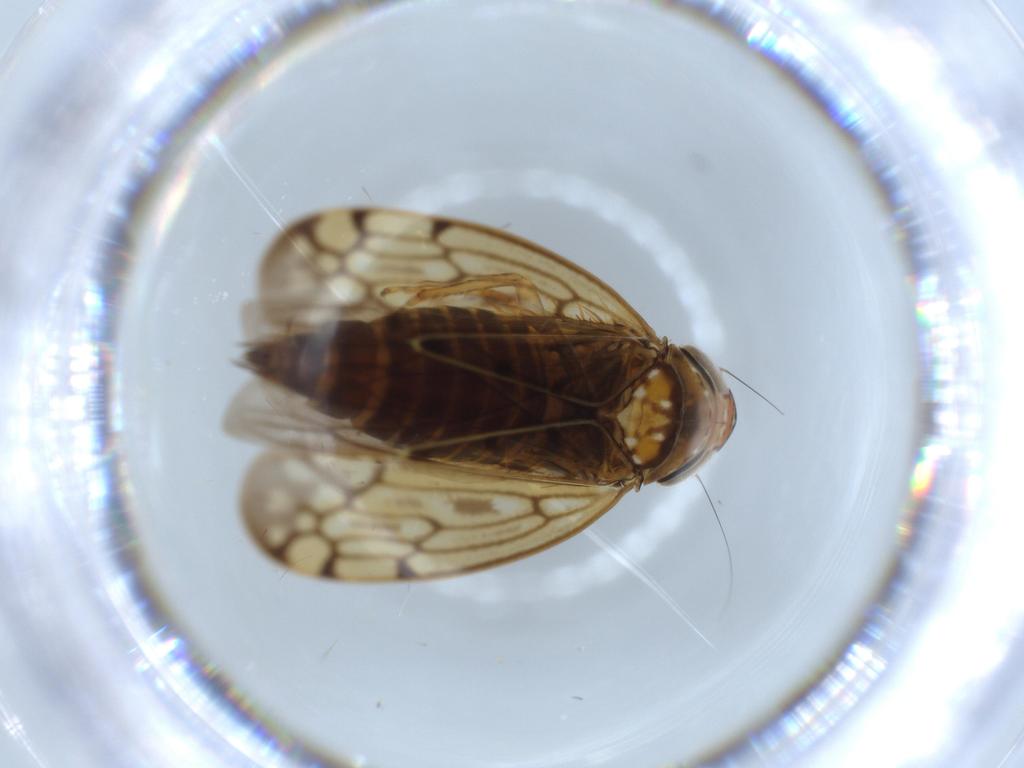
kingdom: Animalia
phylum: Arthropoda
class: Insecta
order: Hemiptera
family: Cicadellidae
